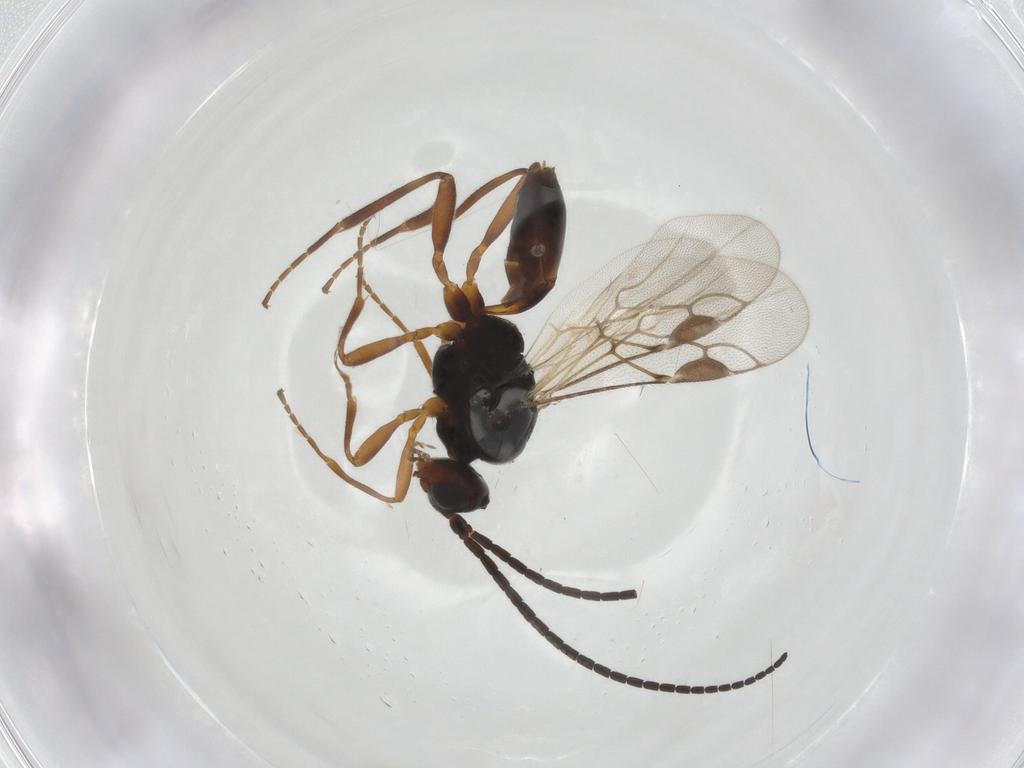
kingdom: Animalia
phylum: Arthropoda
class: Insecta
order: Hymenoptera
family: Braconidae
